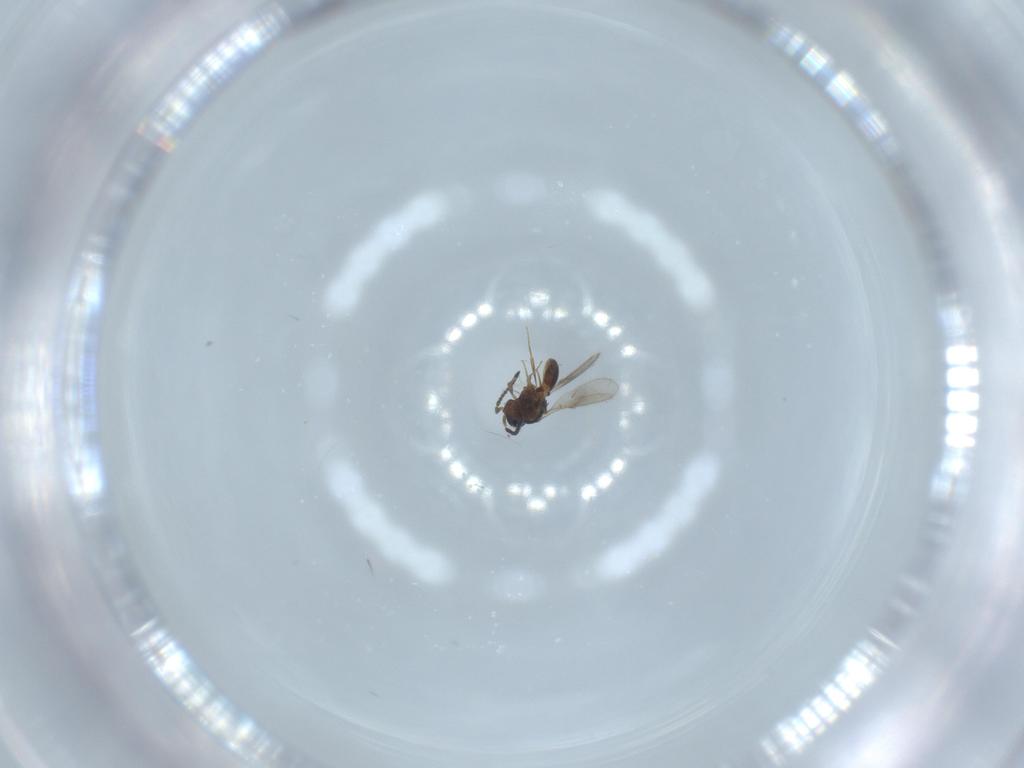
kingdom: Animalia
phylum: Arthropoda
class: Insecta
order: Hymenoptera
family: Scelionidae
